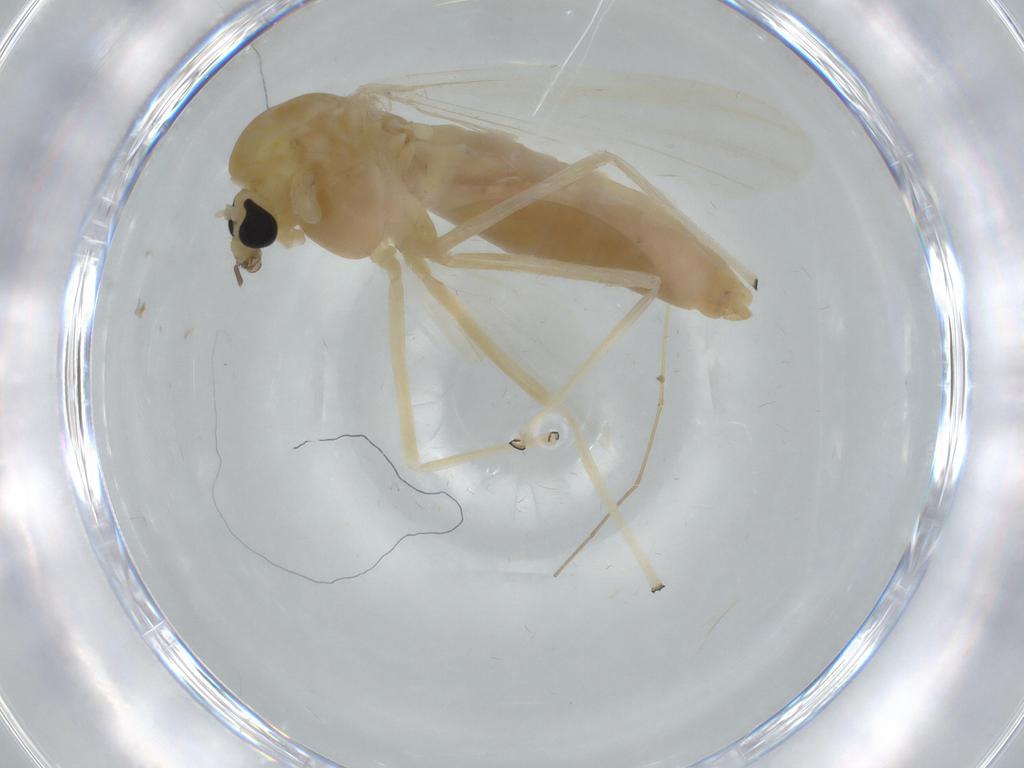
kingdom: Animalia
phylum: Arthropoda
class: Insecta
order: Diptera
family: Chironomidae
